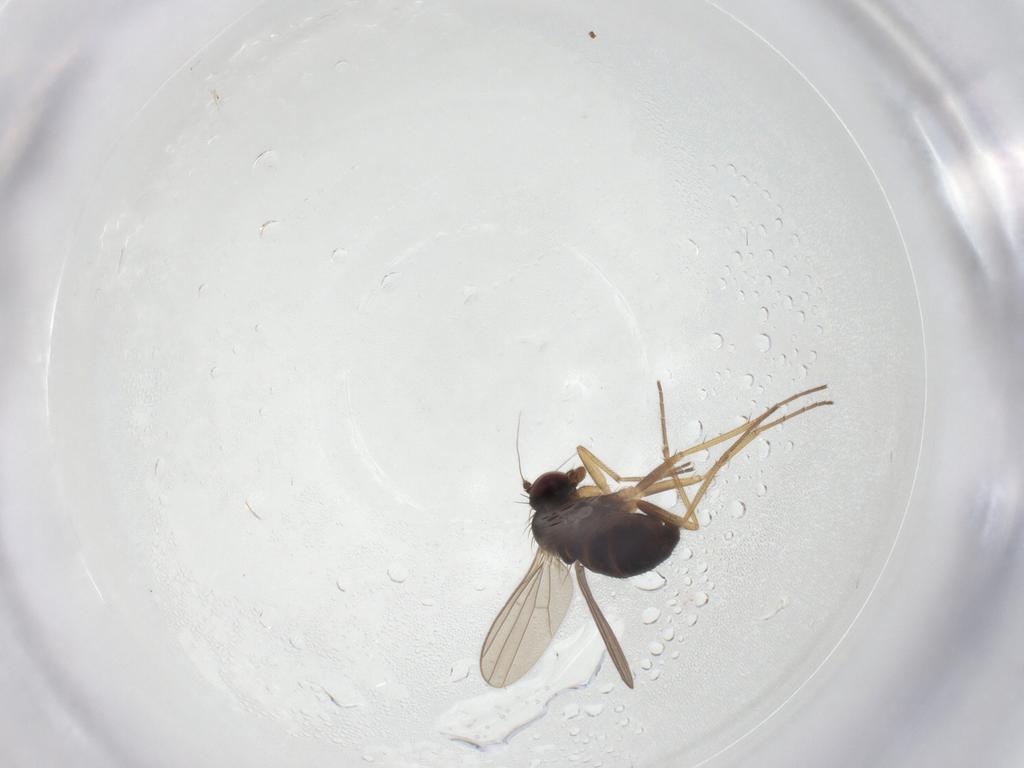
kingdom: Animalia
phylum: Arthropoda
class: Insecta
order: Diptera
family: Dolichopodidae
